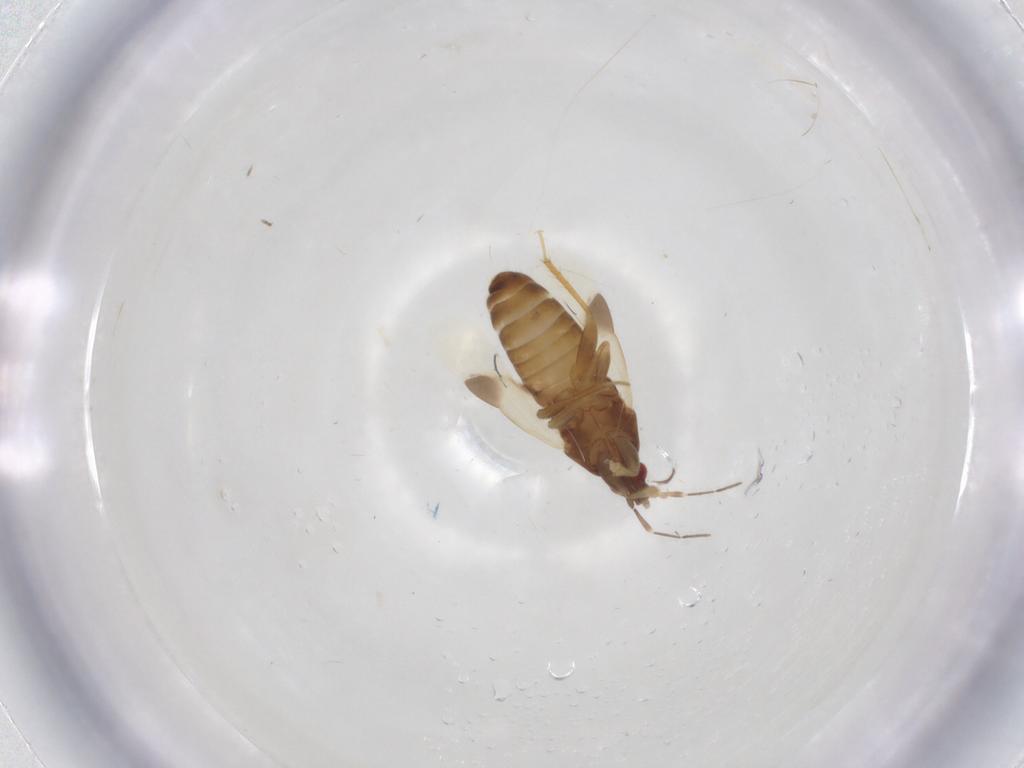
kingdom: Animalia
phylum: Arthropoda
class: Insecta
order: Hemiptera
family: Anthocoridae
